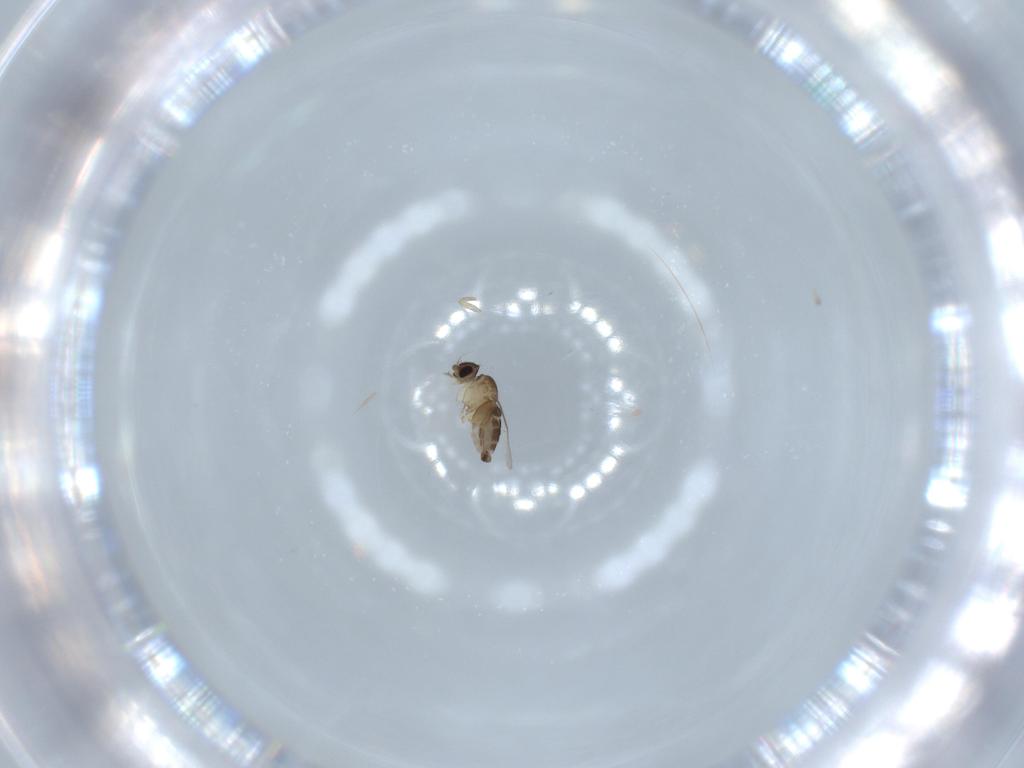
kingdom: Animalia
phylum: Arthropoda
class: Insecta
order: Diptera
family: Phoridae
